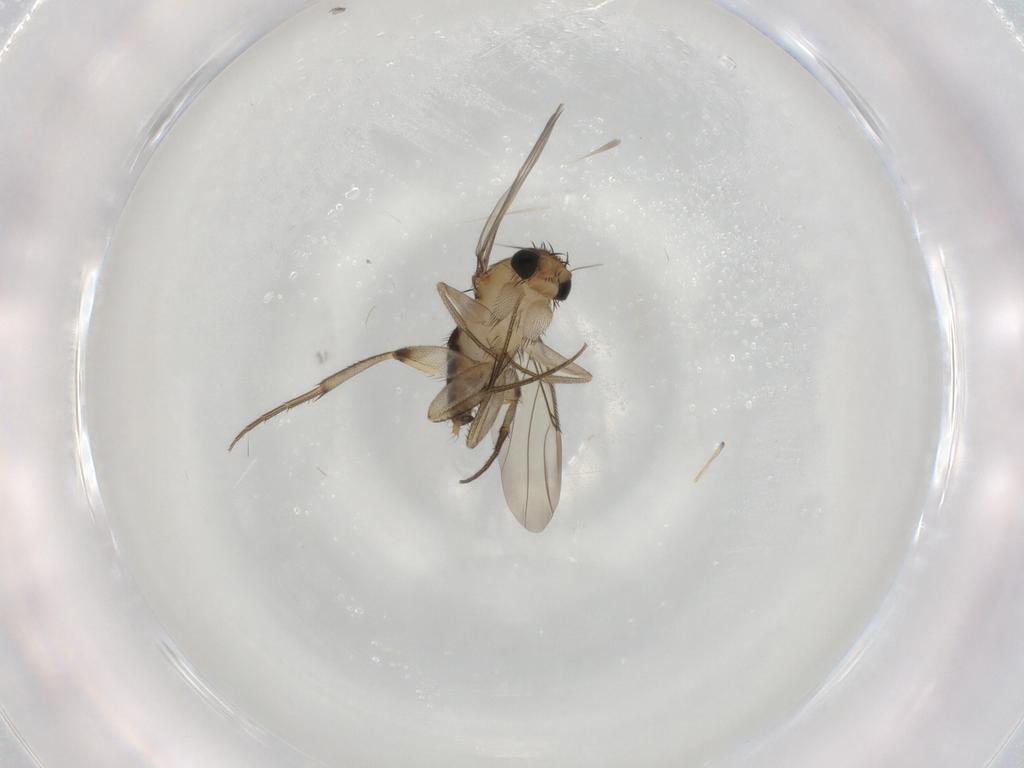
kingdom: Animalia
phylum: Arthropoda
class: Insecta
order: Diptera
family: Phoridae
